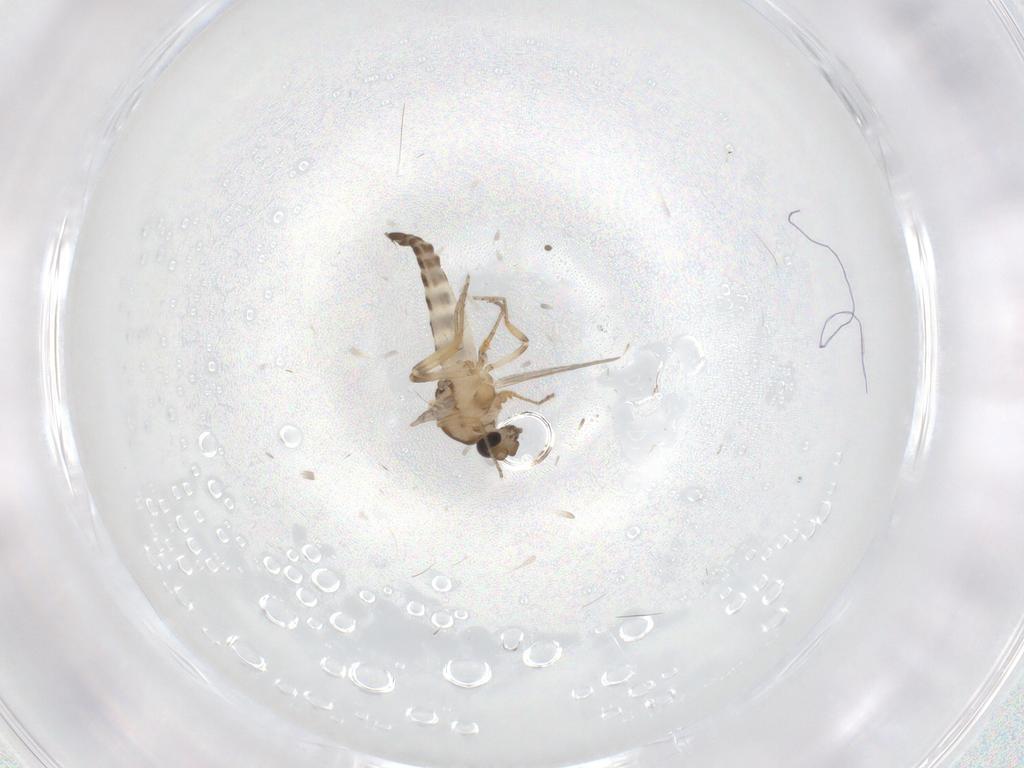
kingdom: Animalia
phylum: Arthropoda
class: Insecta
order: Diptera
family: Ceratopogonidae
